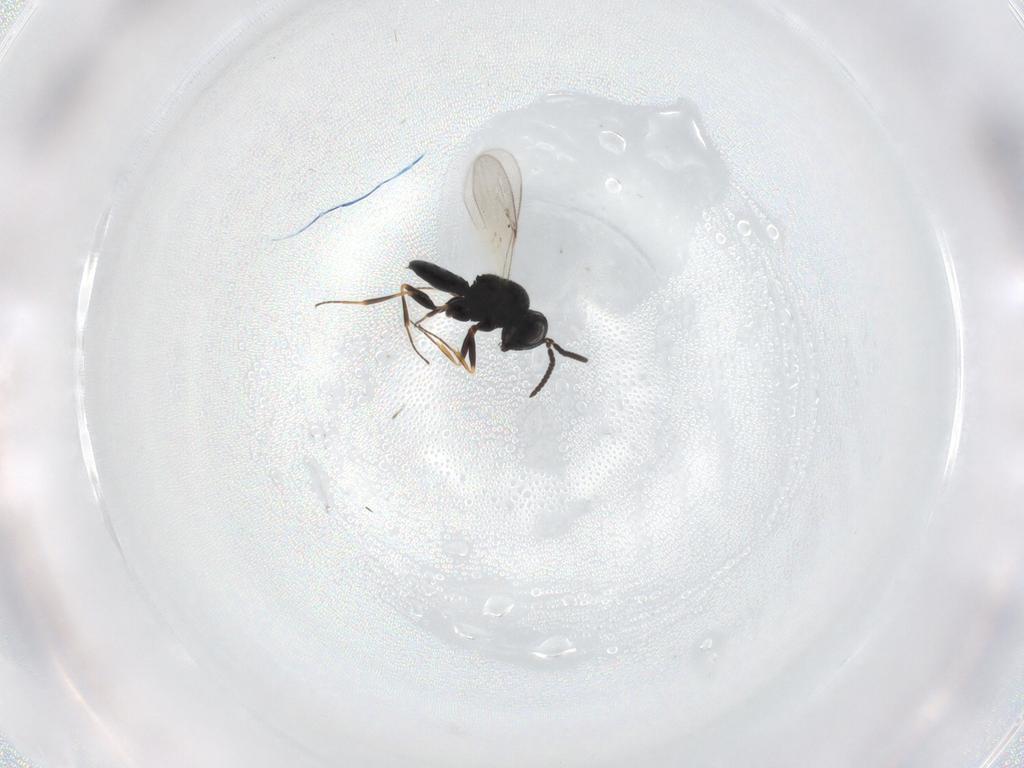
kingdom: Animalia
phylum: Arthropoda
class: Insecta
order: Hymenoptera
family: Scelionidae
